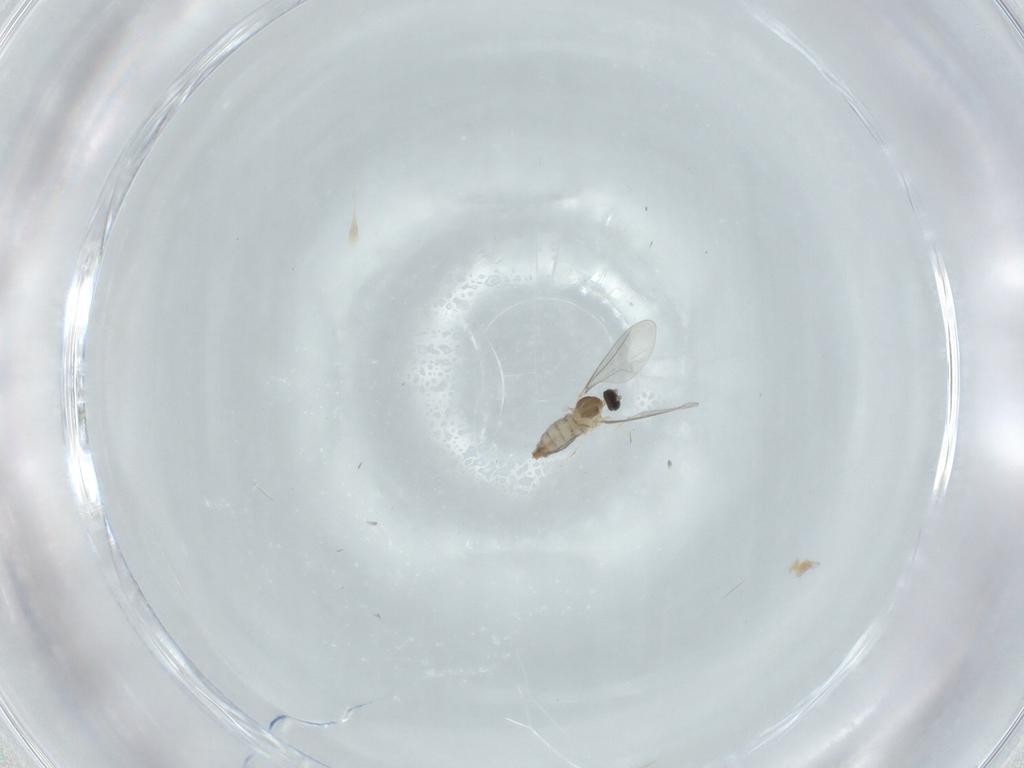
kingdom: Animalia
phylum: Arthropoda
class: Insecta
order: Diptera
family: Cecidomyiidae
